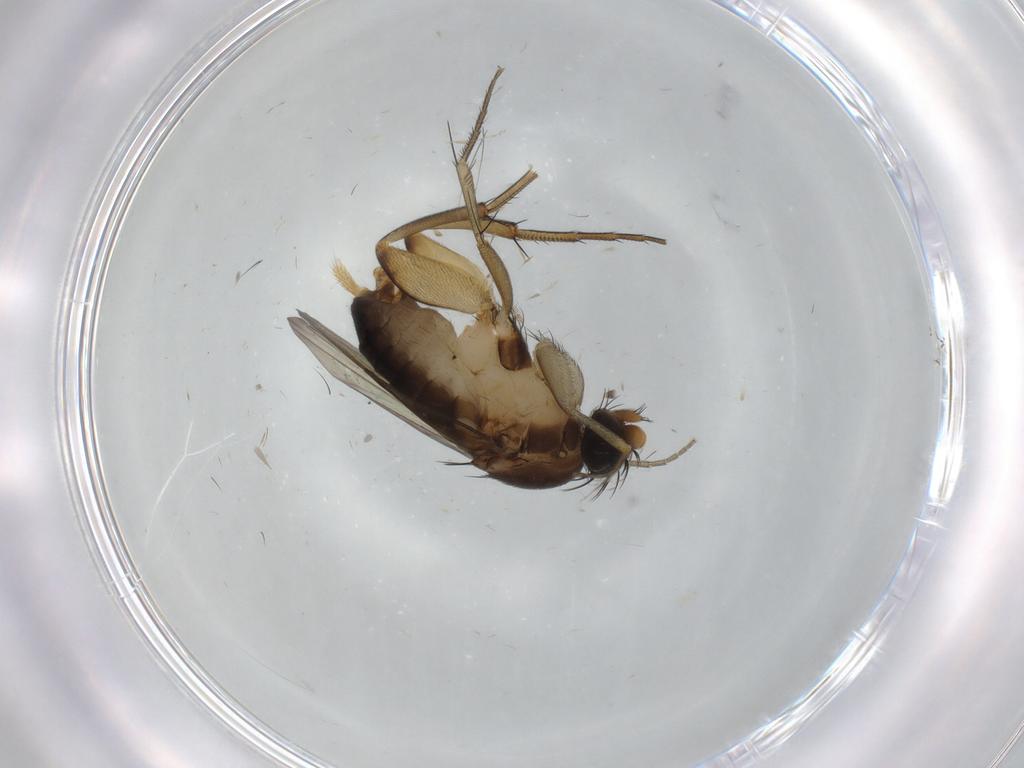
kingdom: Animalia
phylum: Arthropoda
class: Insecta
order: Diptera
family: Phoridae
